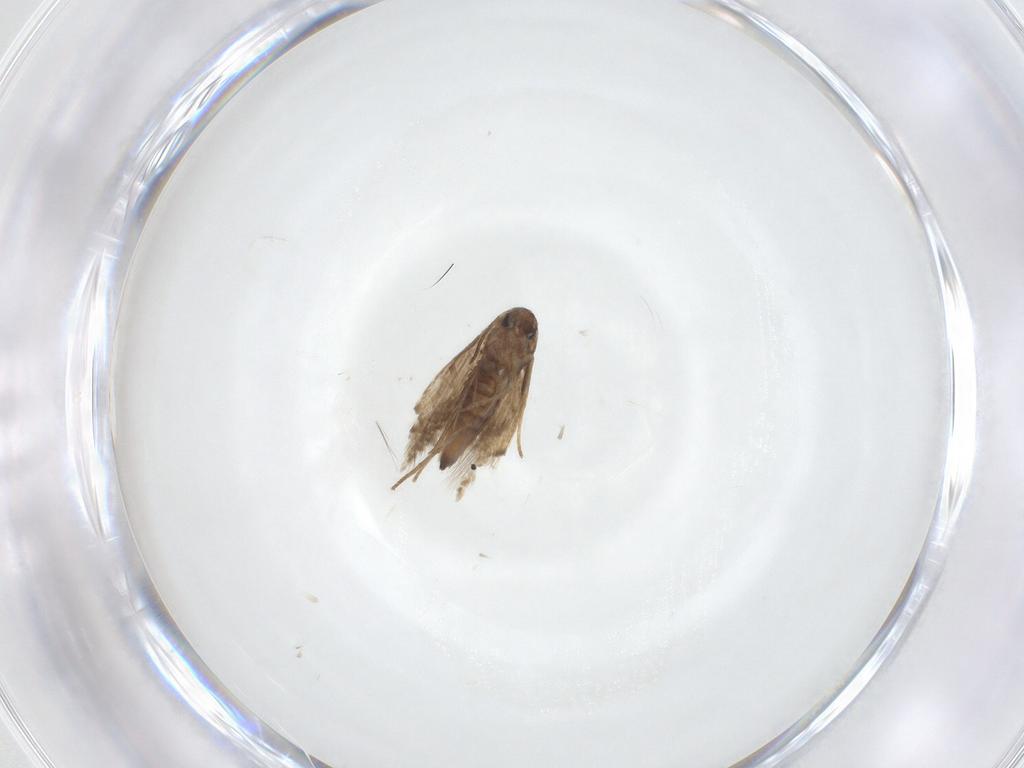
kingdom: Animalia
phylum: Arthropoda
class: Insecta
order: Lepidoptera
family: Heliozelidae
